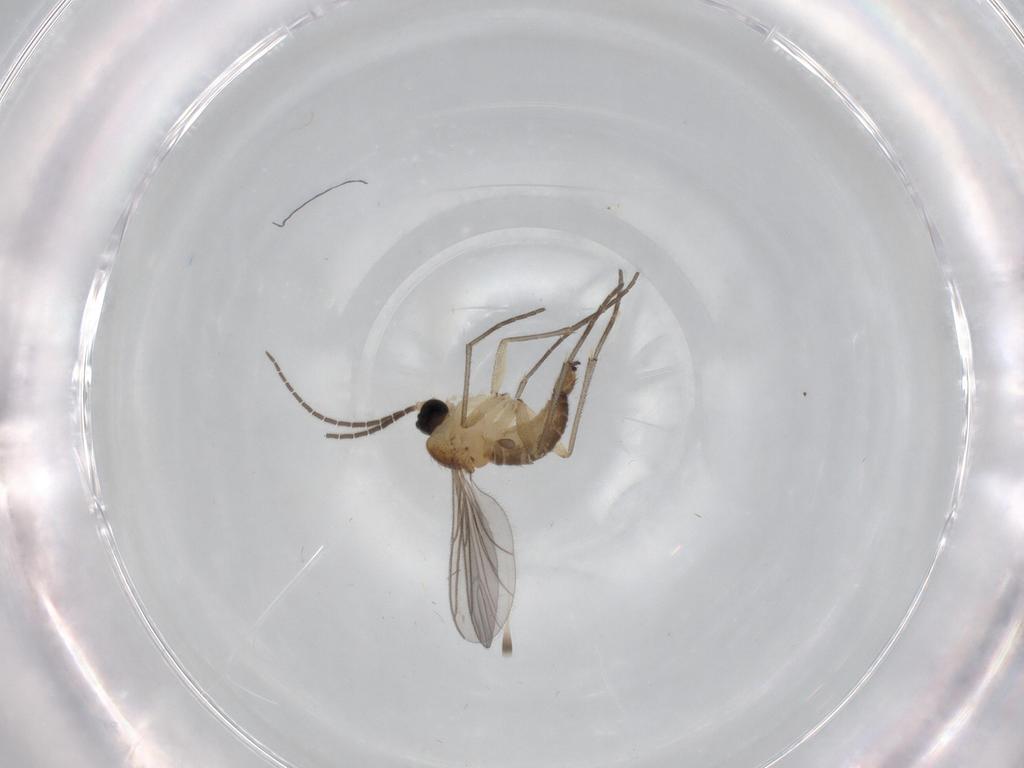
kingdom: Animalia
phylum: Arthropoda
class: Insecta
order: Diptera
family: Sciaridae
